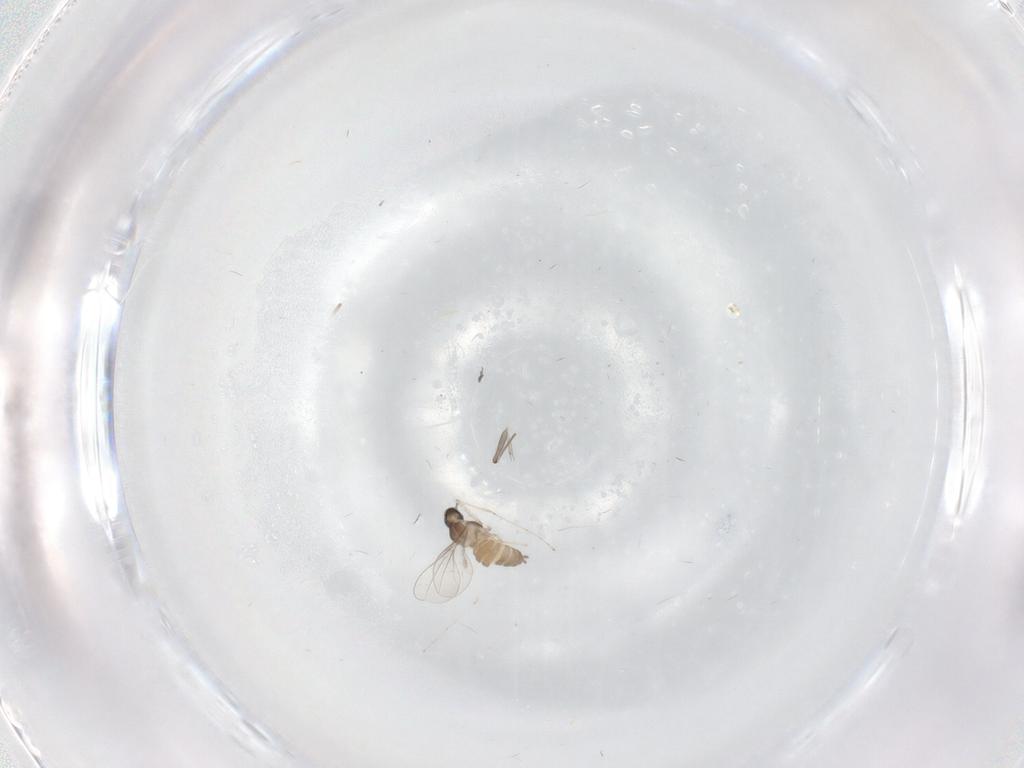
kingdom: Animalia
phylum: Arthropoda
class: Insecta
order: Diptera
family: Cecidomyiidae
